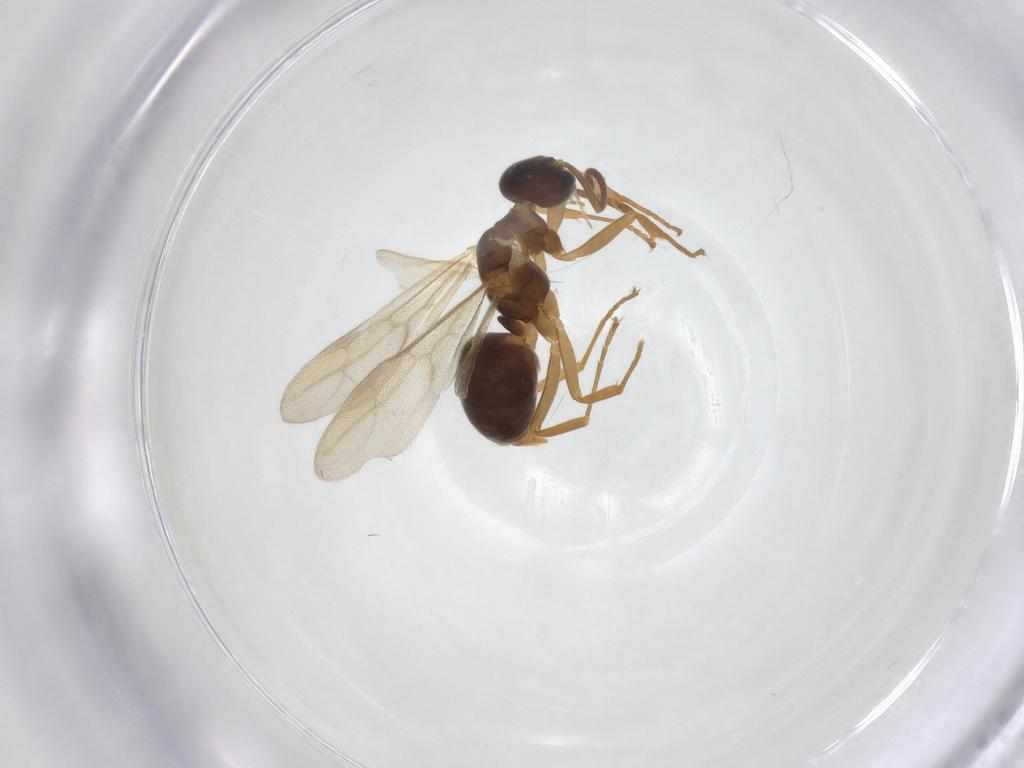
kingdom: Animalia
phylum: Arthropoda
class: Insecta
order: Hymenoptera
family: Formicidae
